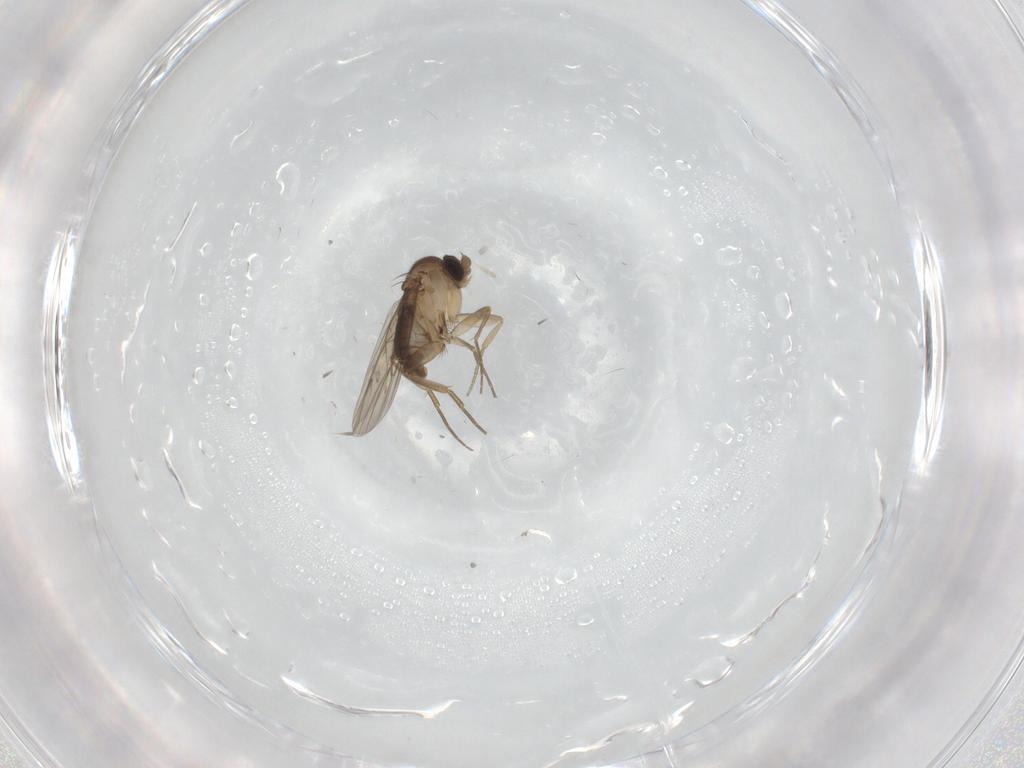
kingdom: Animalia
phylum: Arthropoda
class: Insecta
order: Diptera
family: Phoridae
